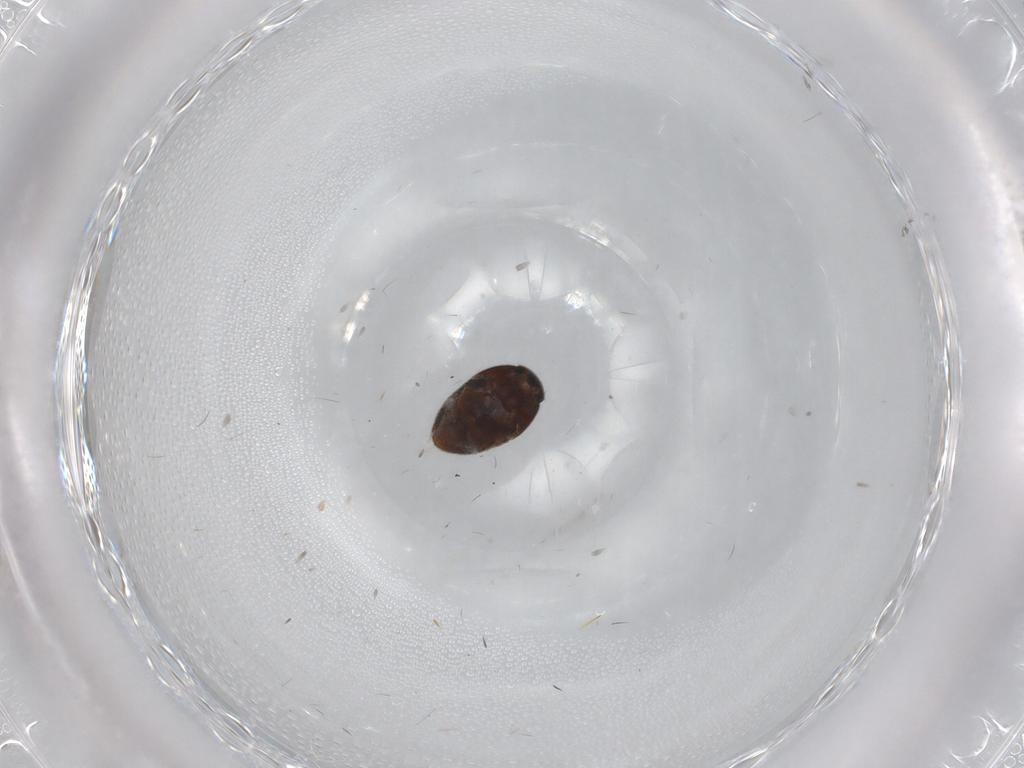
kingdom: Animalia
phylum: Arthropoda
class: Insecta
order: Coleoptera
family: Ptiliidae
